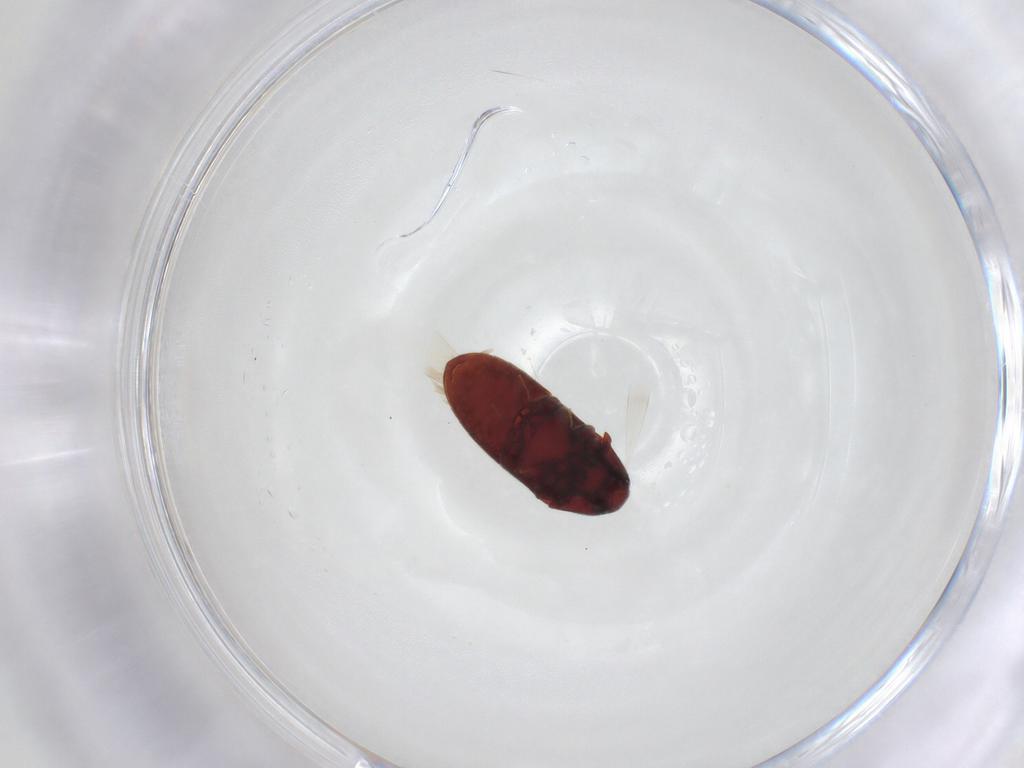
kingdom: Animalia
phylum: Arthropoda
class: Insecta
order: Coleoptera
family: Throscidae
